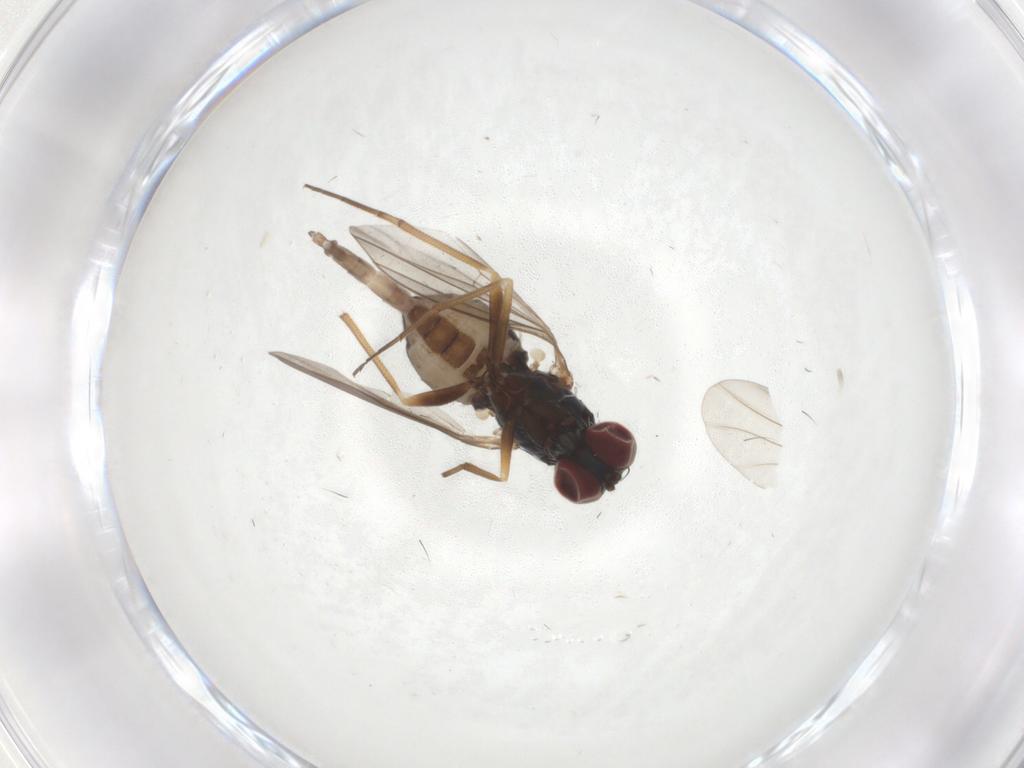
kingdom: Animalia
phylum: Arthropoda
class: Insecta
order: Diptera
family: Dolichopodidae
